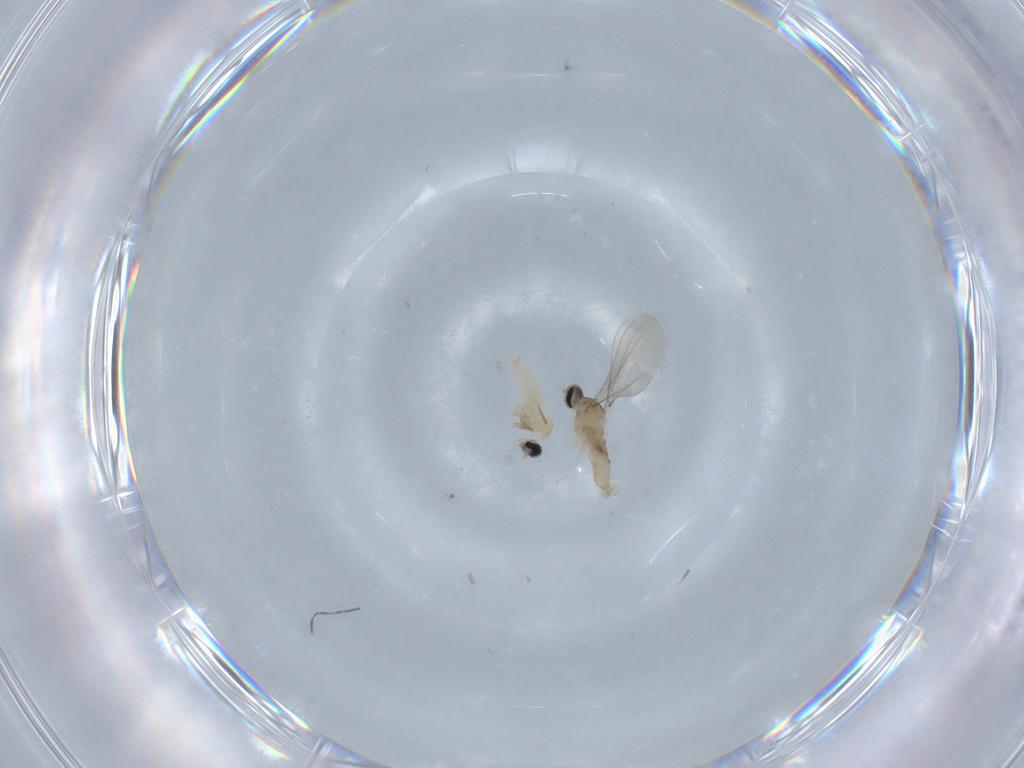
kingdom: Animalia
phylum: Arthropoda
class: Insecta
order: Diptera
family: Cecidomyiidae
